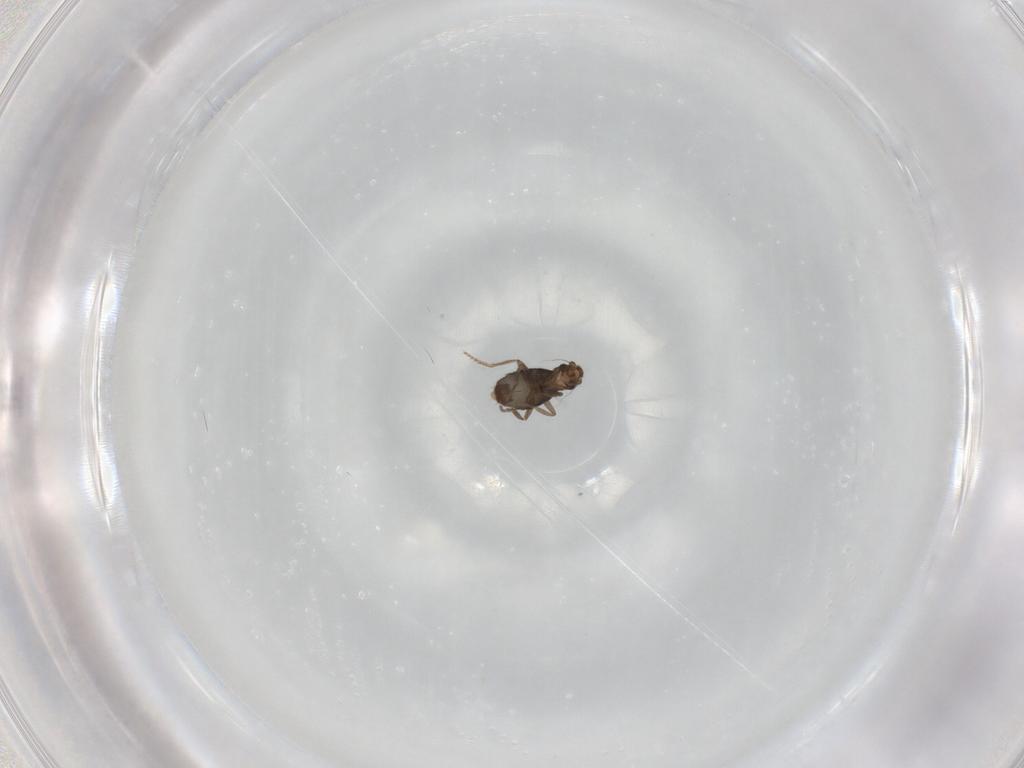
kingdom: Animalia
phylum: Arthropoda
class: Insecta
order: Diptera
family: Phoridae
